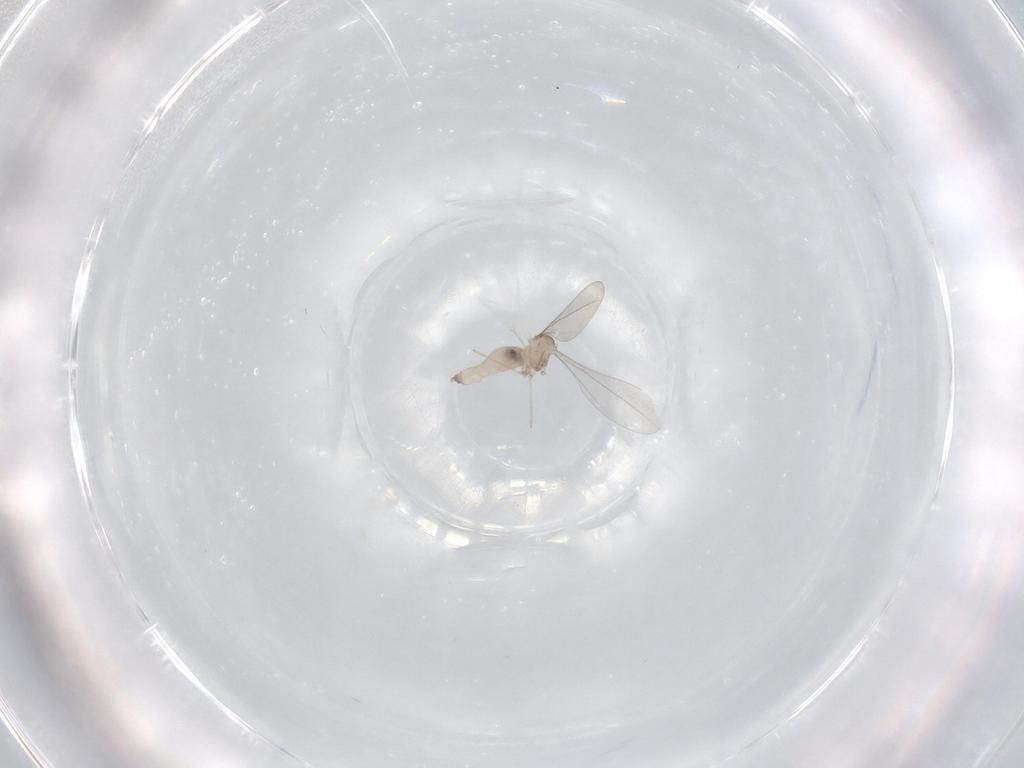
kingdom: Animalia
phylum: Arthropoda
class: Insecta
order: Diptera
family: Cecidomyiidae
